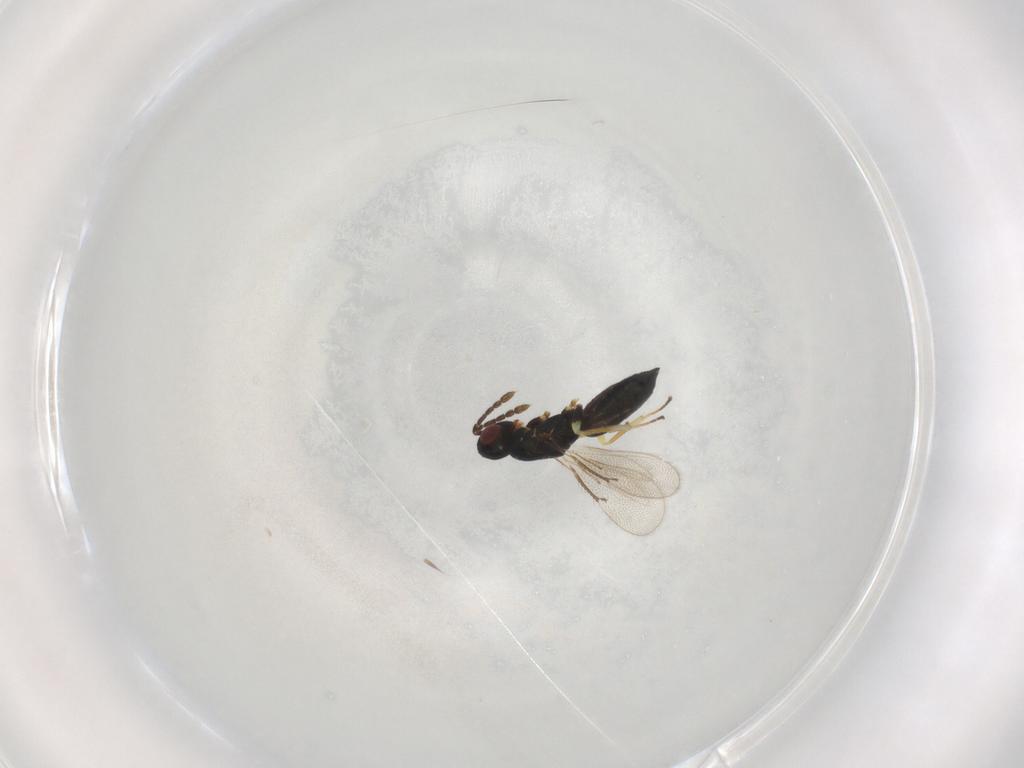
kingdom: Animalia
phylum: Arthropoda
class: Insecta
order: Hymenoptera
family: Eulophidae
